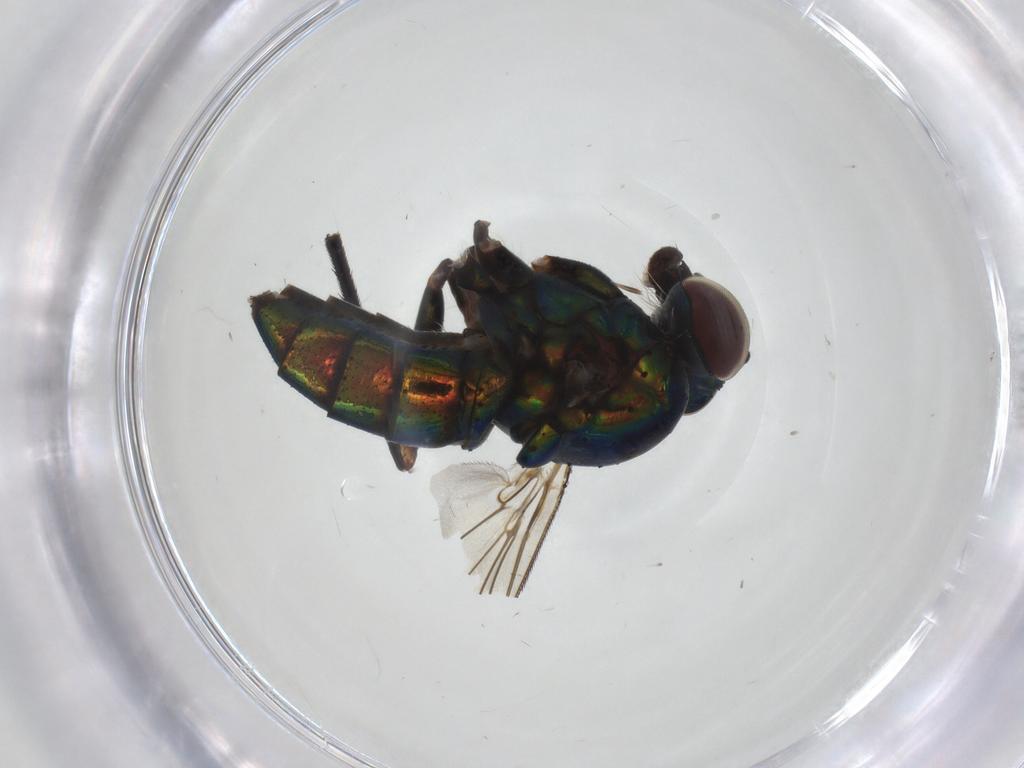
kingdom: Animalia
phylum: Arthropoda
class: Insecta
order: Diptera
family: Dolichopodidae
